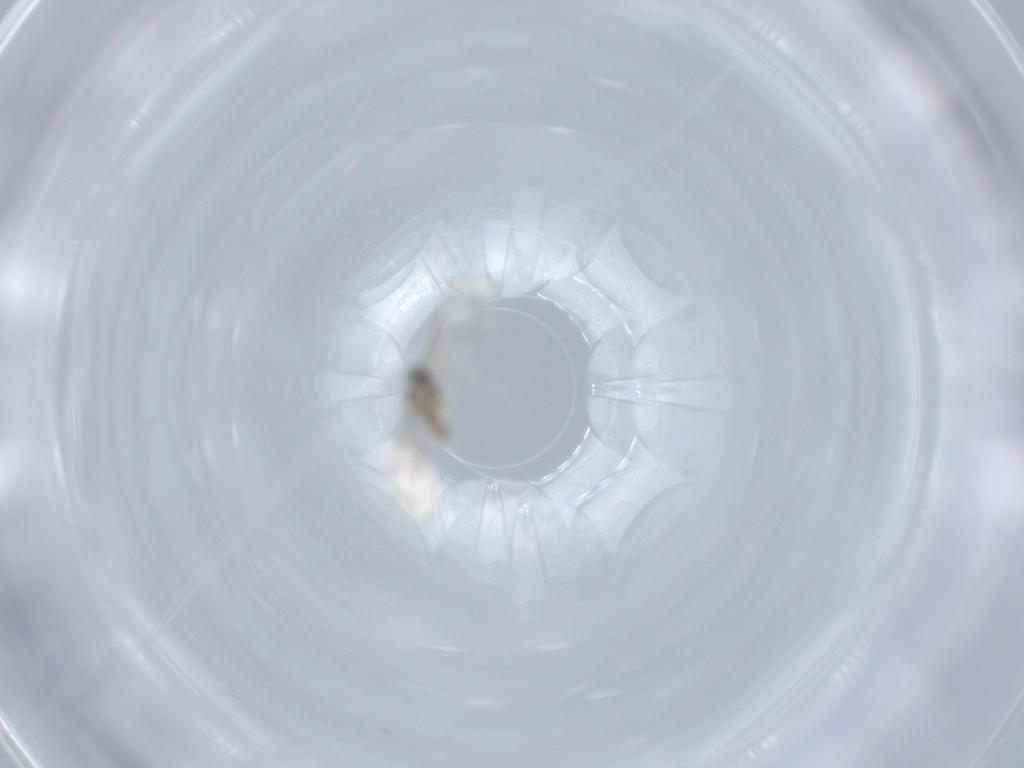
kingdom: Animalia
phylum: Arthropoda
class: Insecta
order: Diptera
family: Cecidomyiidae
